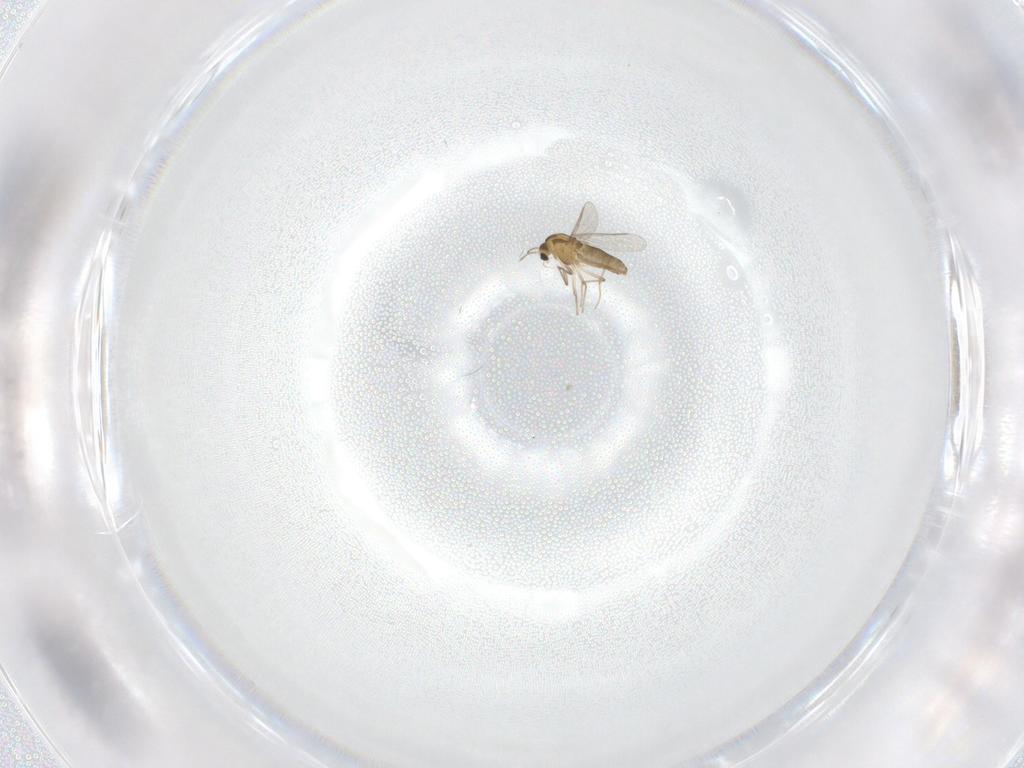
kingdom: Animalia
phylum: Arthropoda
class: Insecta
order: Diptera
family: Chironomidae
